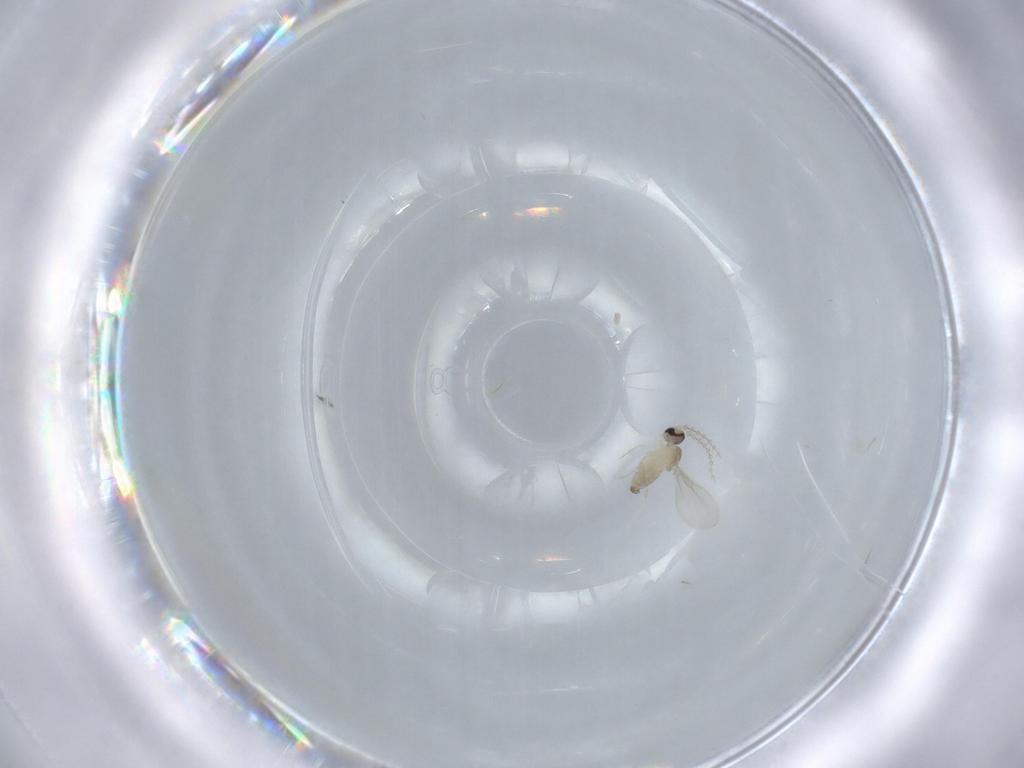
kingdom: Animalia
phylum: Arthropoda
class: Insecta
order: Diptera
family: Cecidomyiidae
